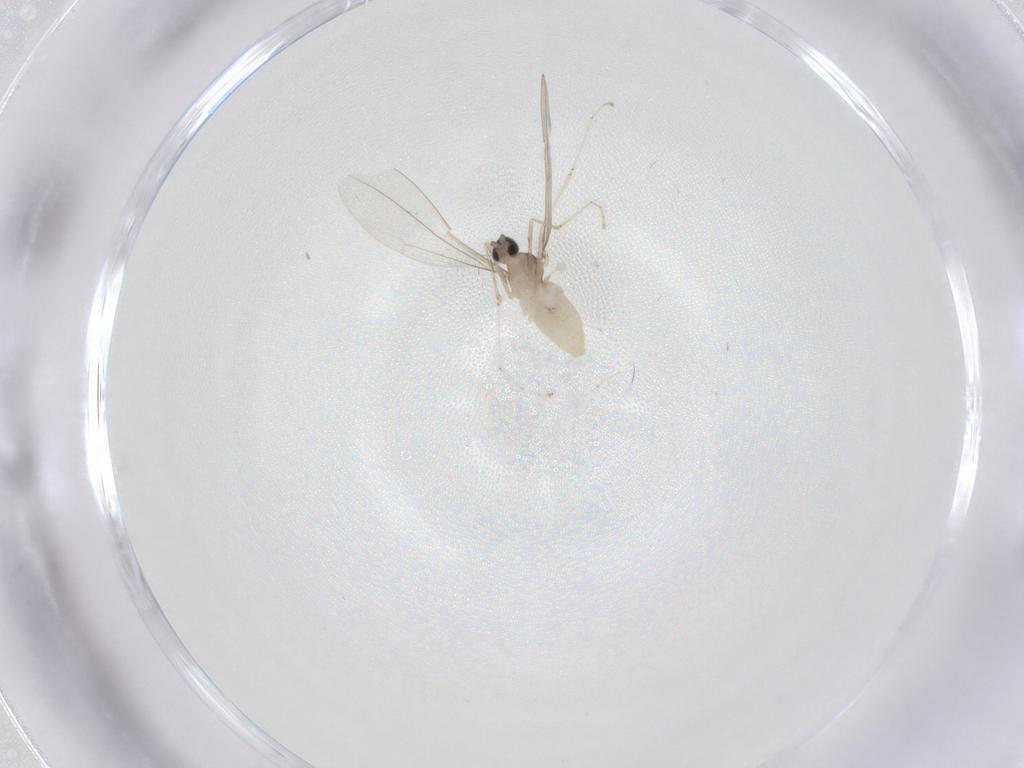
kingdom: Animalia
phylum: Arthropoda
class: Insecta
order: Diptera
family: Cecidomyiidae
